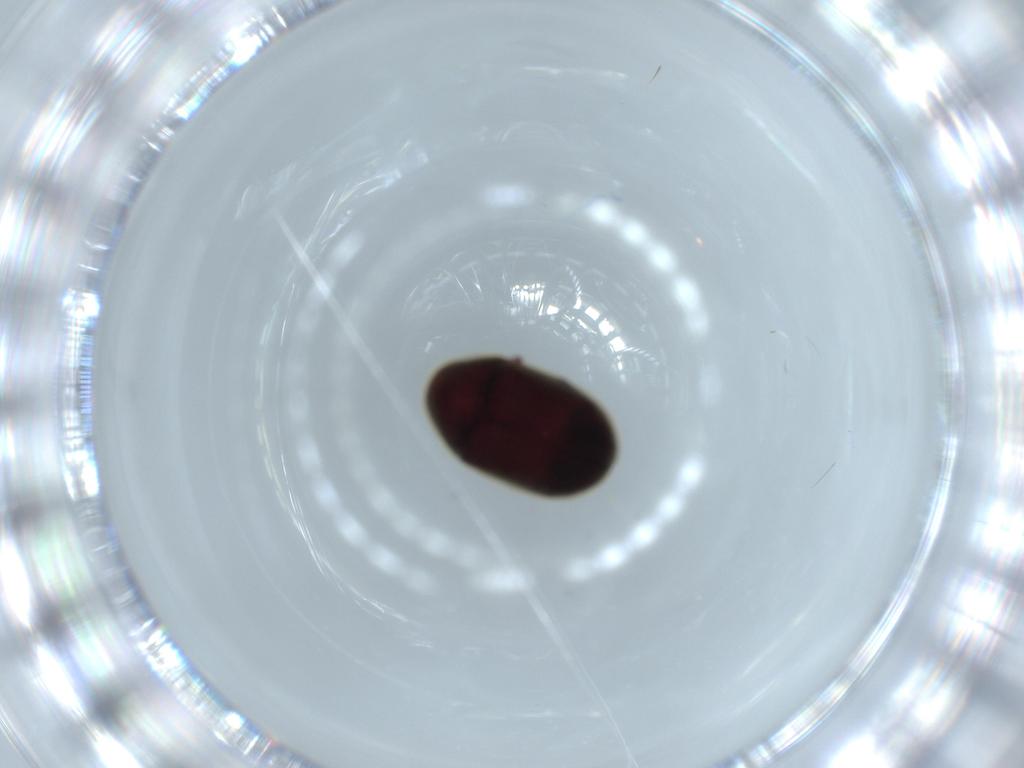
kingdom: Animalia
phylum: Arthropoda
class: Insecta
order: Coleoptera
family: Ptinidae
